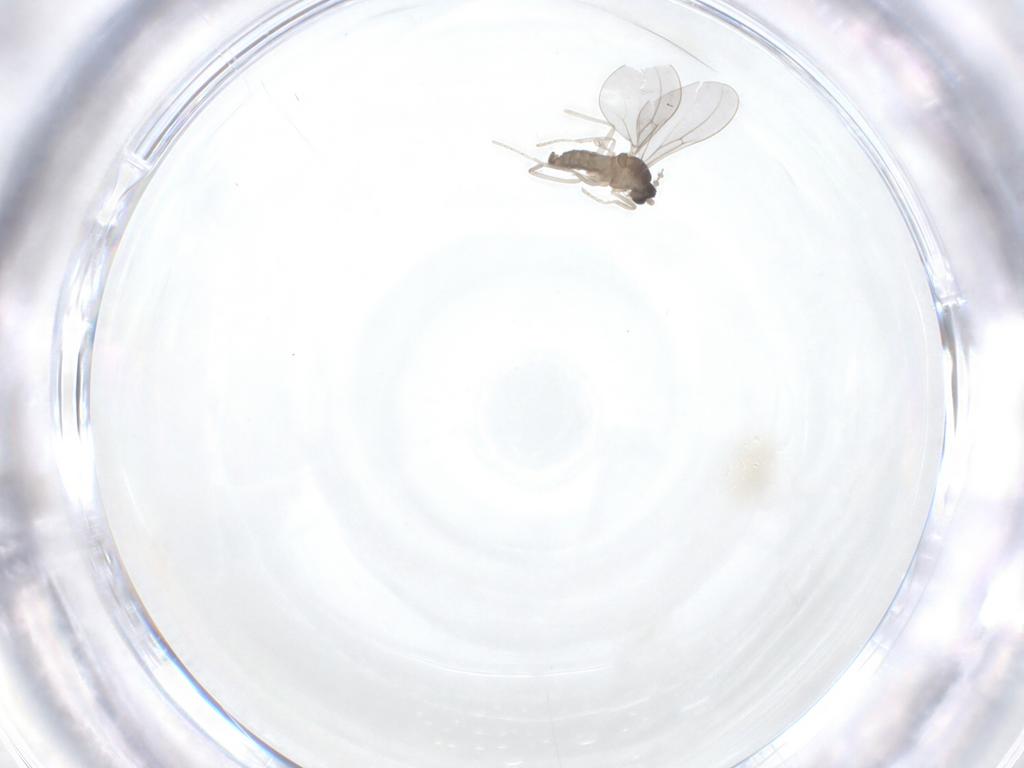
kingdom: Animalia
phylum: Arthropoda
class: Insecta
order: Diptera
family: Cecidomyiidae
